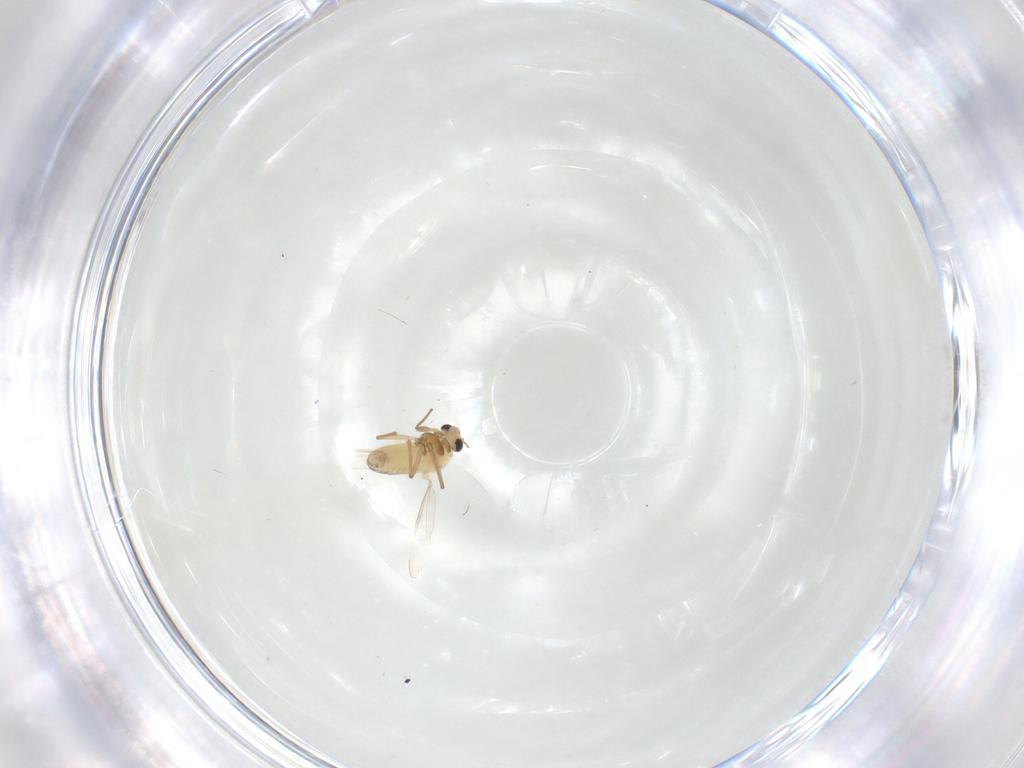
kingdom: Animalia
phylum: Arthropoda
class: Insecta
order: Diptera
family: Chironomidae
